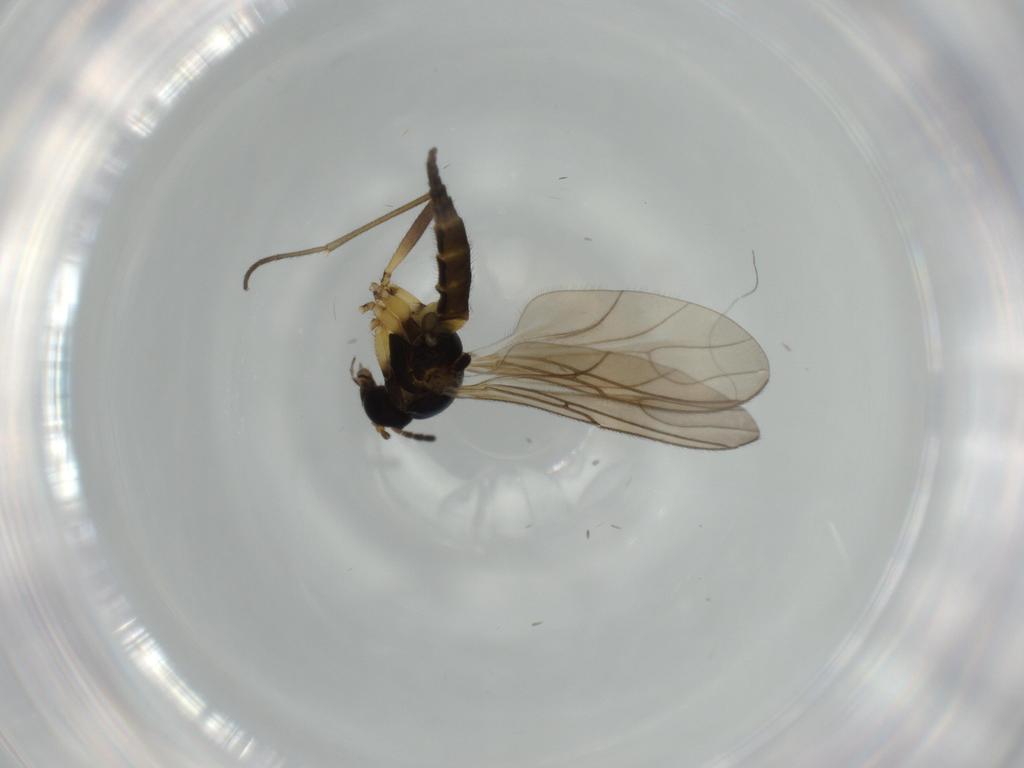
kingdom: Animalia
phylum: Arthropoda
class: Insecta
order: Diptera
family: Sciaridae
